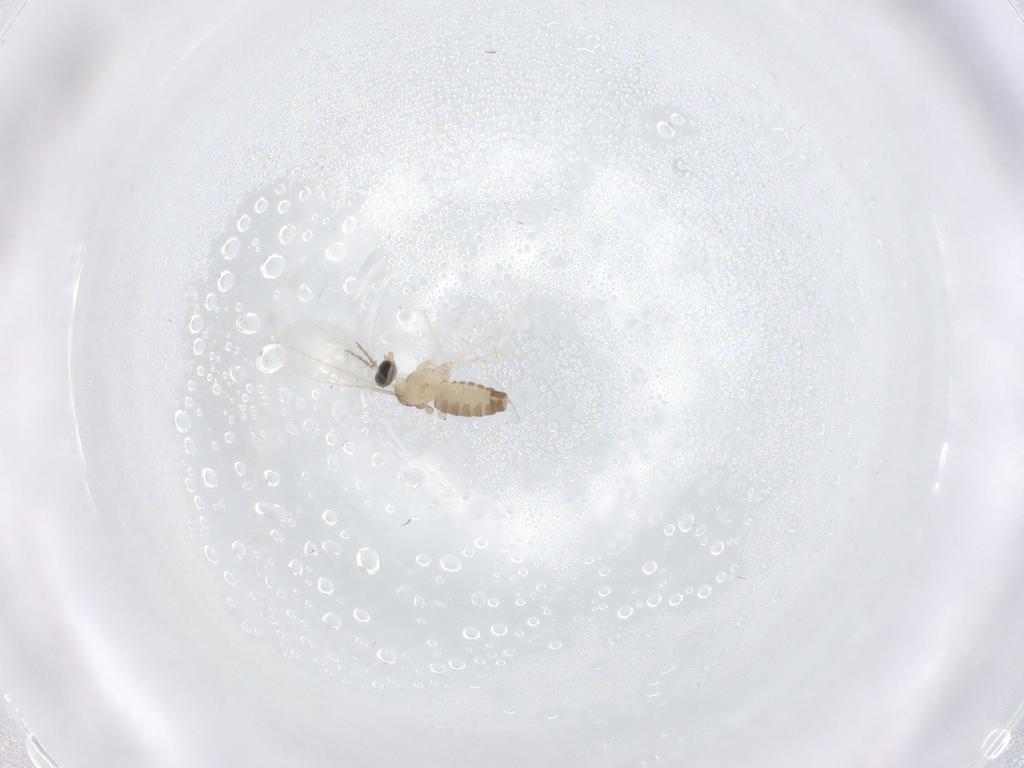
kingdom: Animalia
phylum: Arthropoda
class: Insecta
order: Diptera
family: Cecidomyiidae
